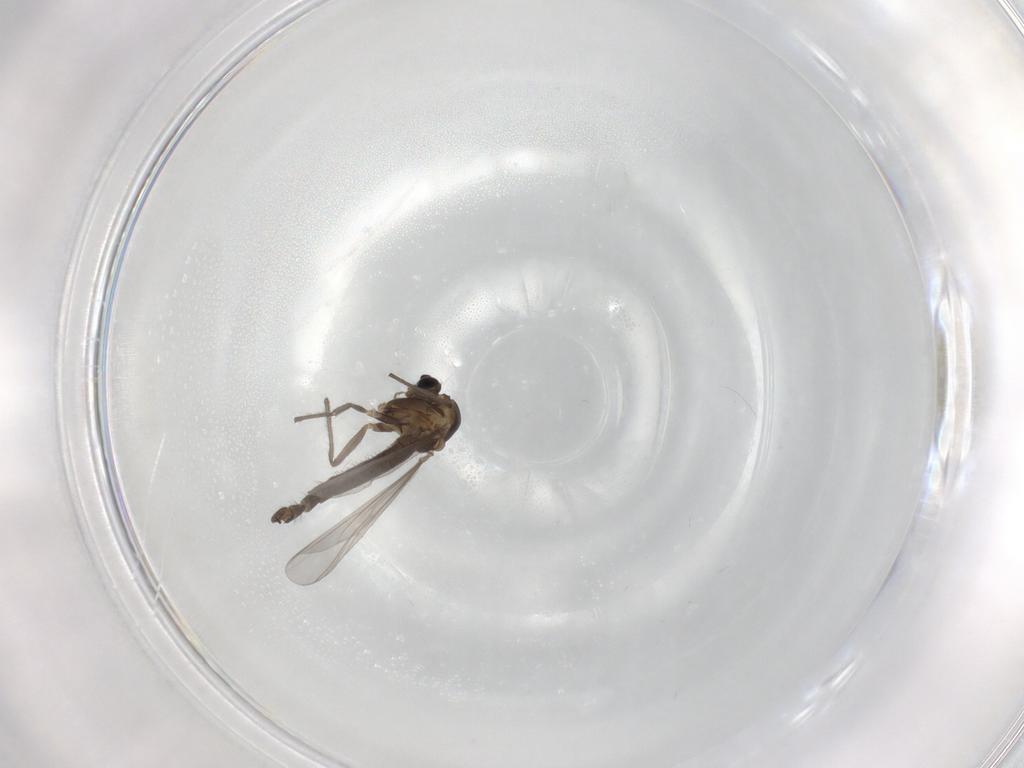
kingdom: Animalia
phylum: Arthropoda
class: Insecta
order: Diptera
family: Chironomidae
